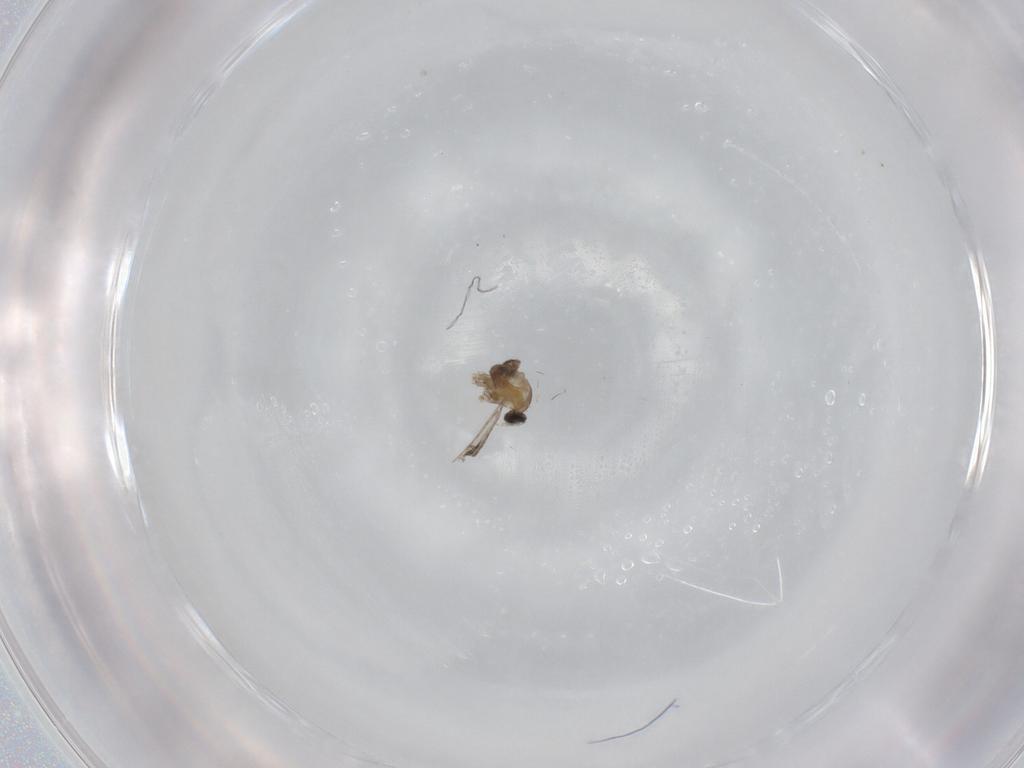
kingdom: Animalia
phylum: Arthropoda
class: Insecta
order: Diptera
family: Cecidomyiidae
